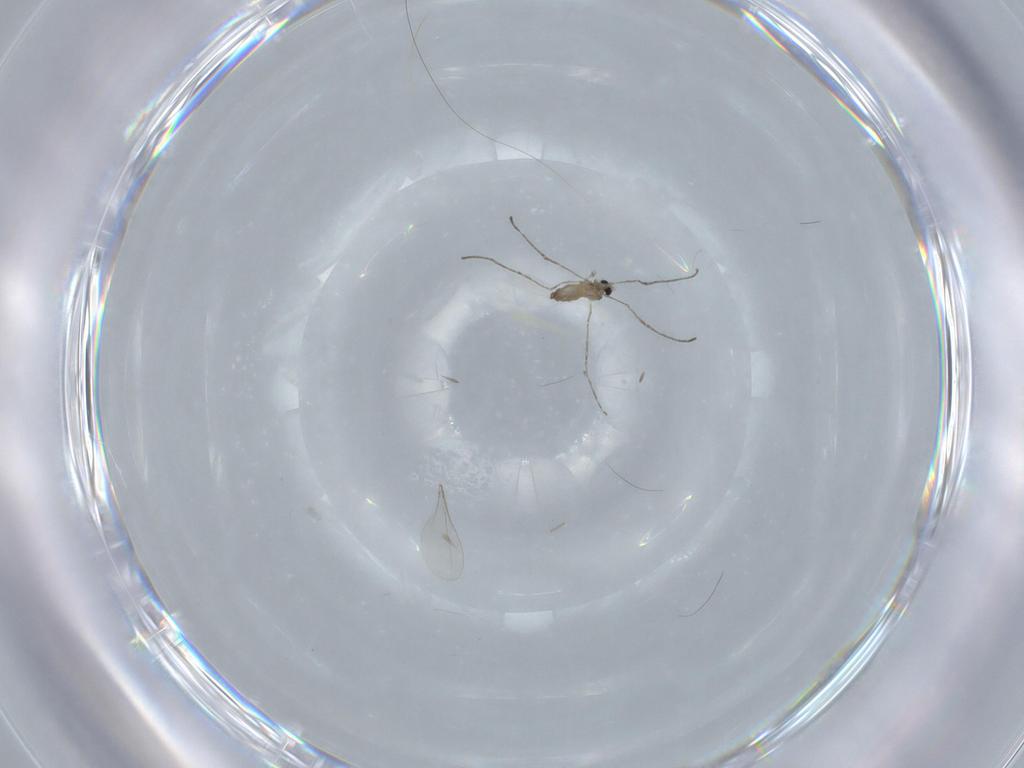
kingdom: Animalia
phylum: Arthropoda
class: Insecta
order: Diptera
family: Cecidomyiidae
